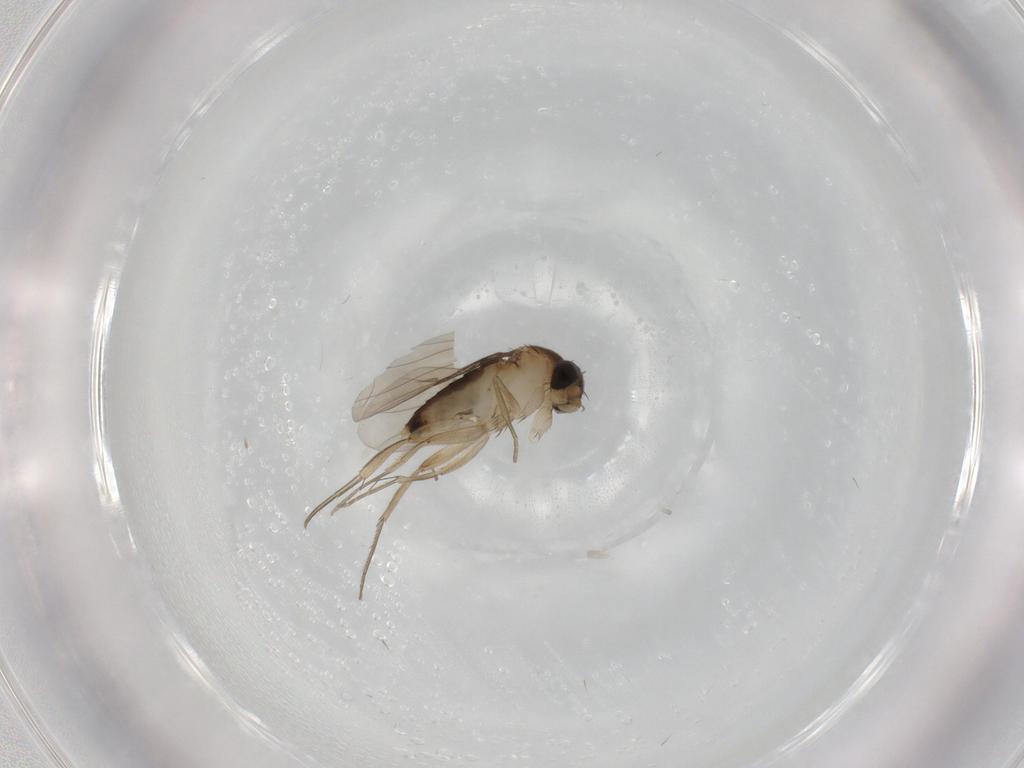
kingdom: Animalia
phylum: Arthropoda
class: Insecta
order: Diptera
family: Phoridae
